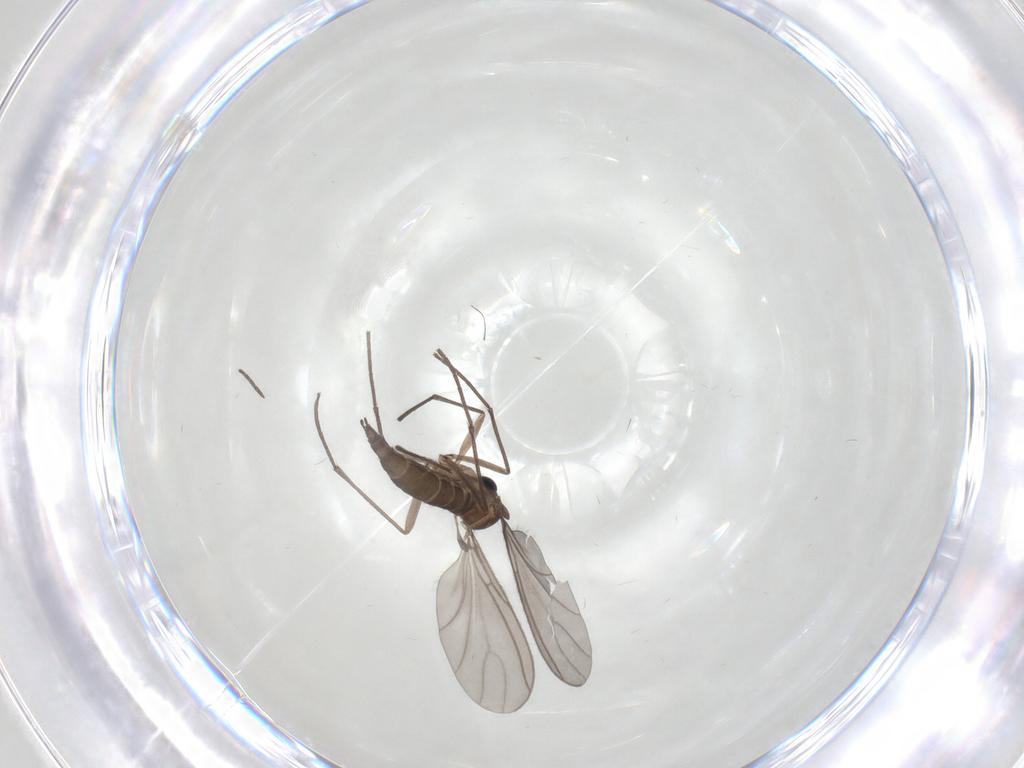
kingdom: Animalia
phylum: Arthropoda
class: Insecta
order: Diptera
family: Sciaridae
